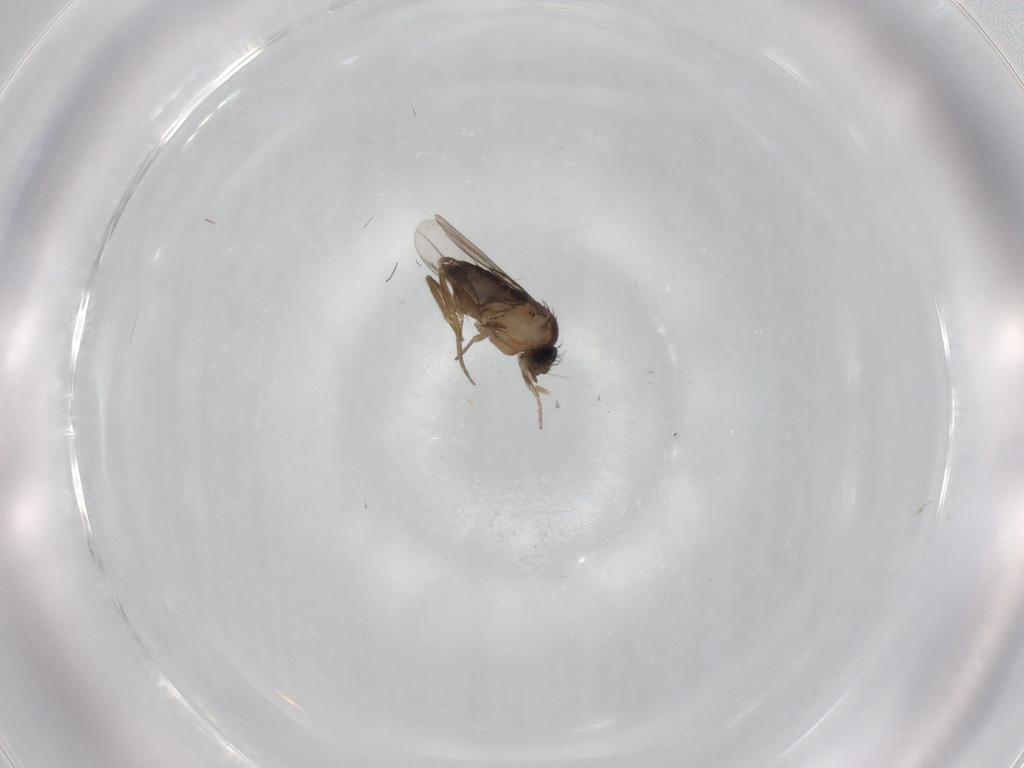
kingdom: Animalia
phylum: Arthropoda
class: Insecta
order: Diptera
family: Phoridae
